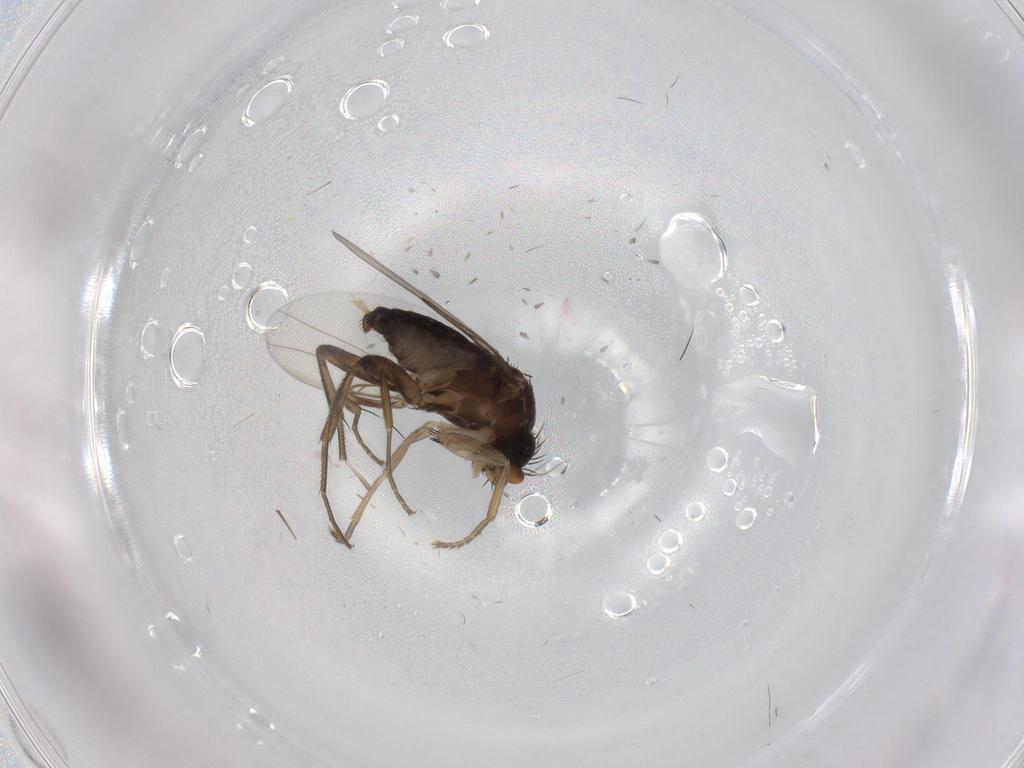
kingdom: Animalia
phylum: Arthropoda
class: Insecta
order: Diptera
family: Phoridae
